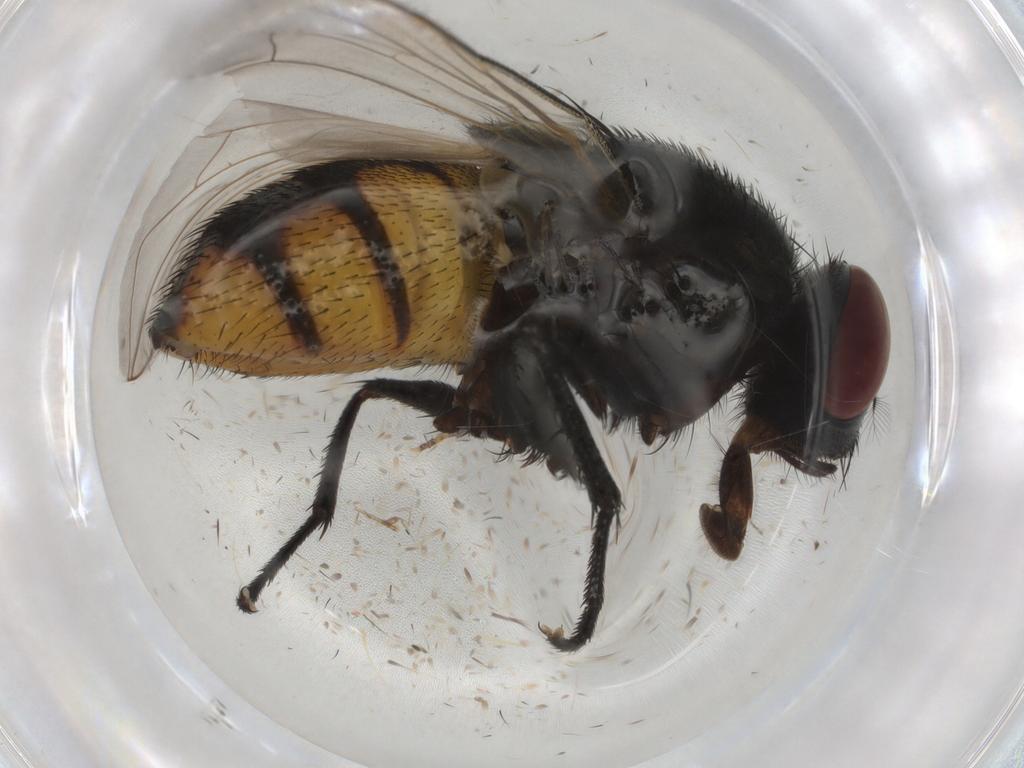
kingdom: Animalia
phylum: Arthropoda
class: Insecta
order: Diptera
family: Cecidomyiidae
